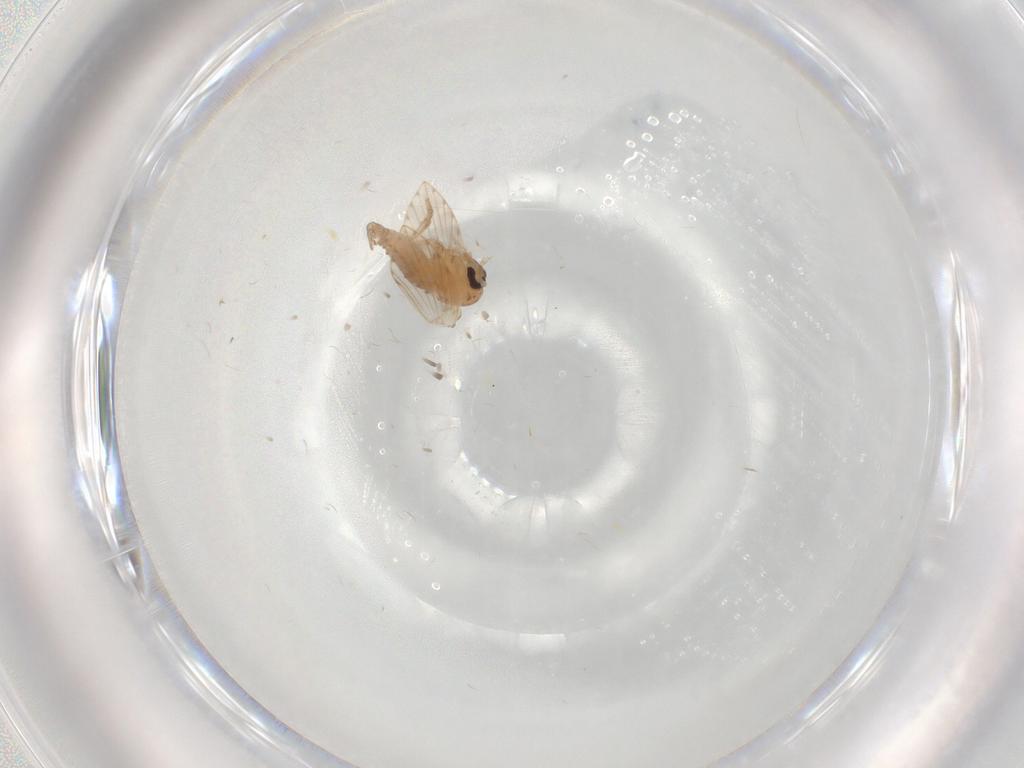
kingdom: Animalia
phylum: Arthropoda
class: Insecta
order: Diptera
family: Psychodidae
